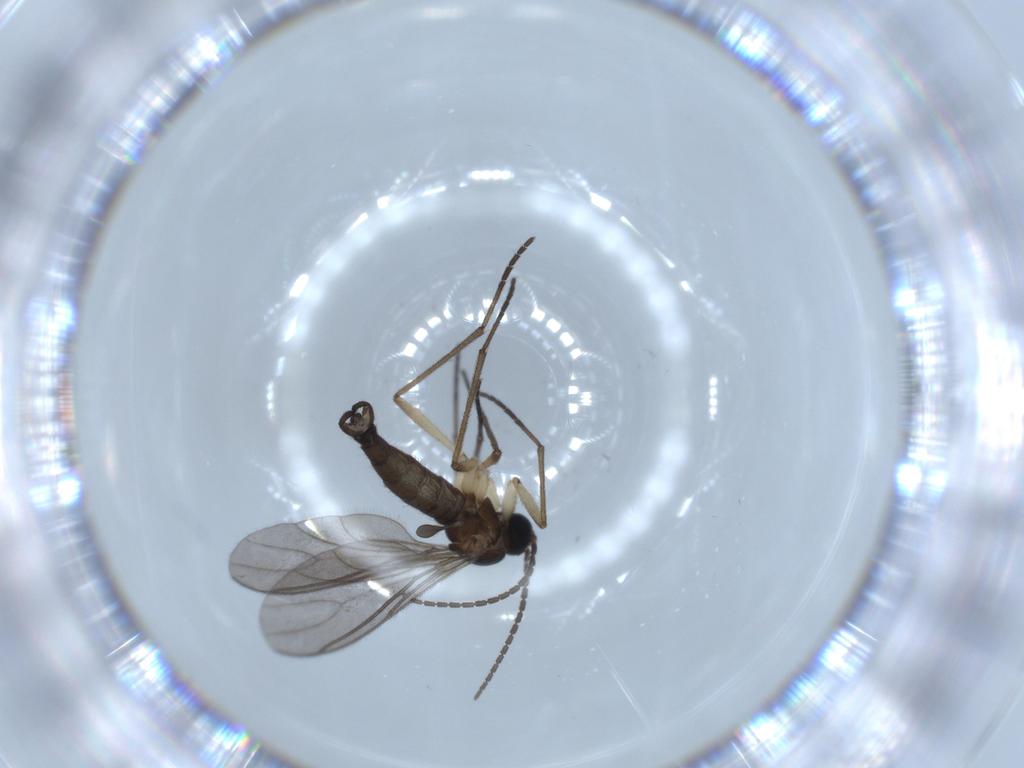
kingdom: Animalia
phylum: Arthropoda
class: Insecta
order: Diptera
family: Sciaridae
